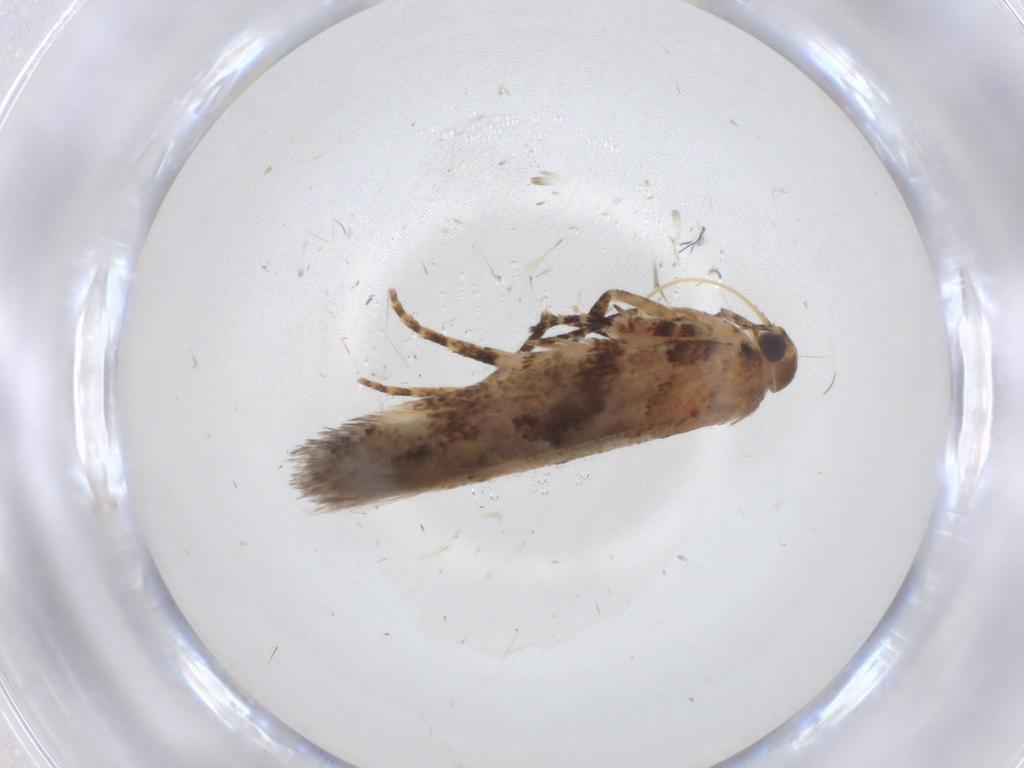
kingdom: Animalia
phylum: Arthropoda
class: Insecta
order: Lepidoptera
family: Gelechiidae
